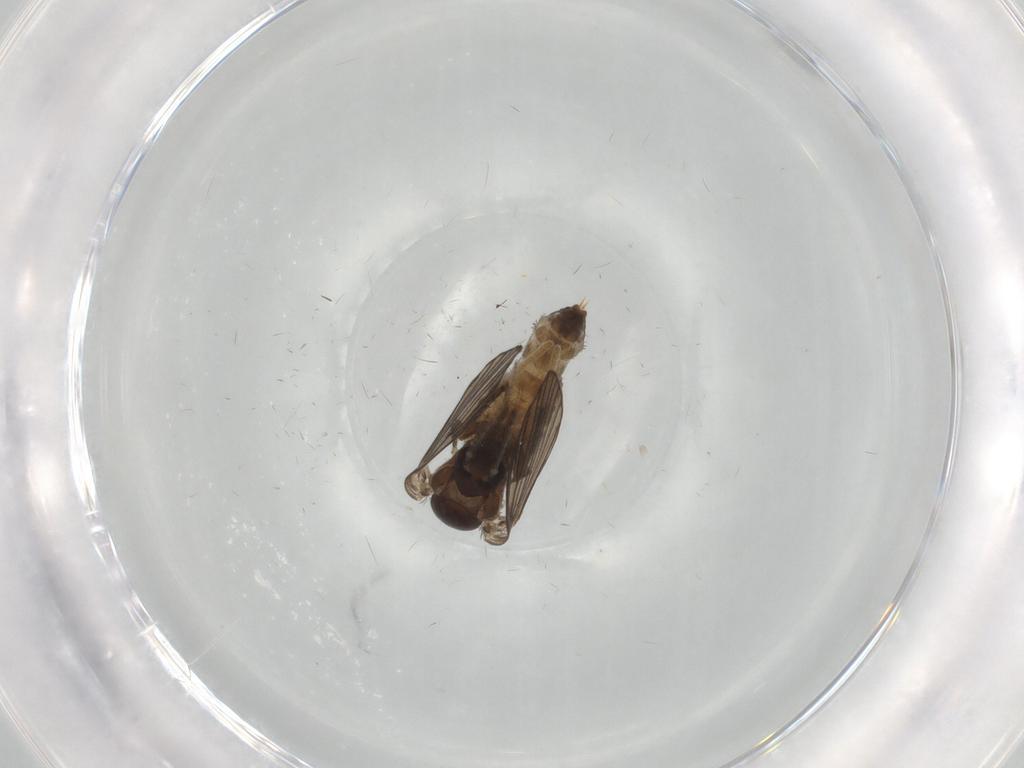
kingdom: Animalia
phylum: Arthropoda
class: Insecta
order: Diptera
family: Psychodidae
